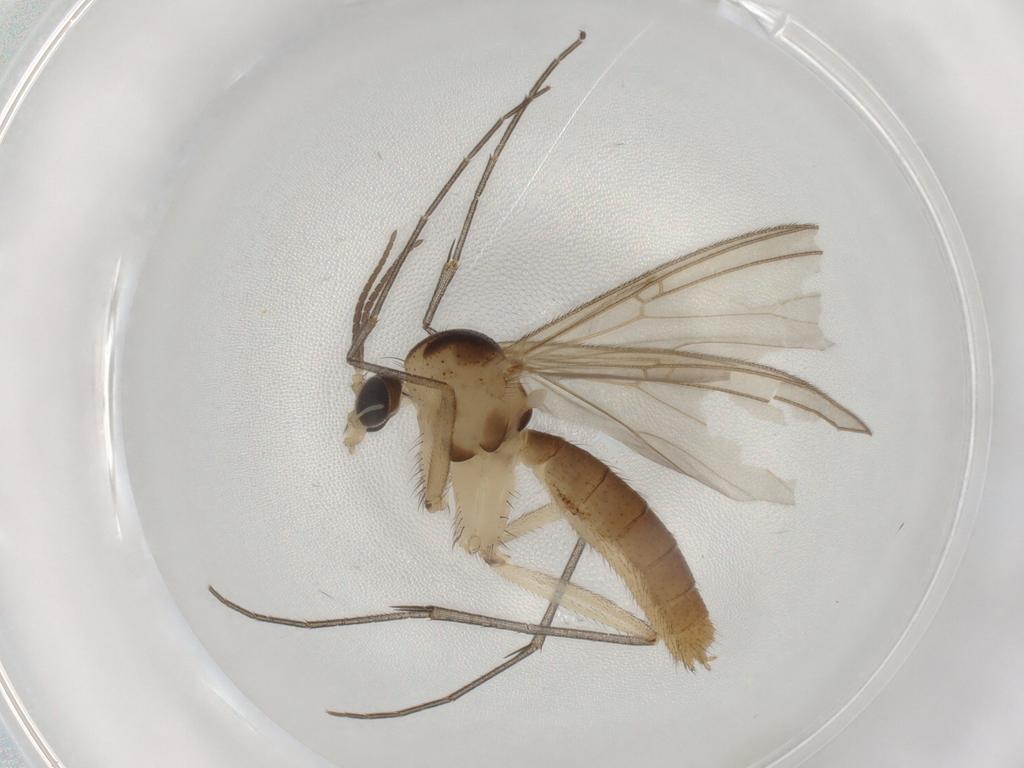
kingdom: Animalia
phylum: Arthropoda
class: Insecta
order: Diptera
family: Mycetophilidae
